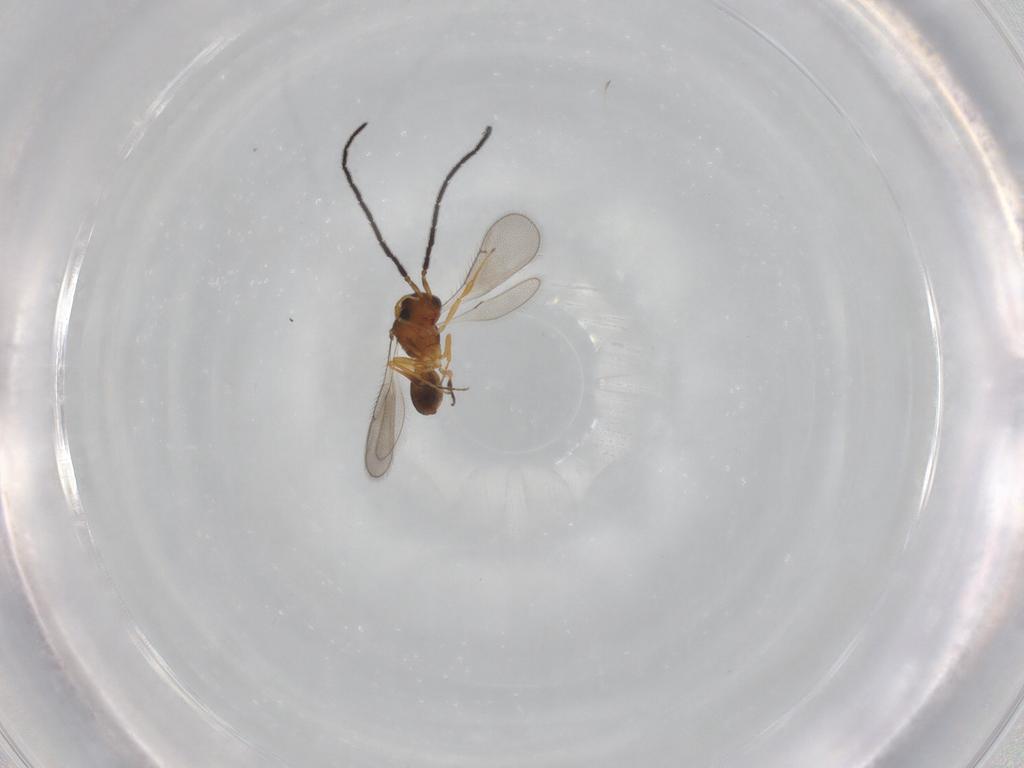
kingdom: Animalia
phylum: Arthropoda
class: Insecta
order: Hymenoptera
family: Scelionidae
